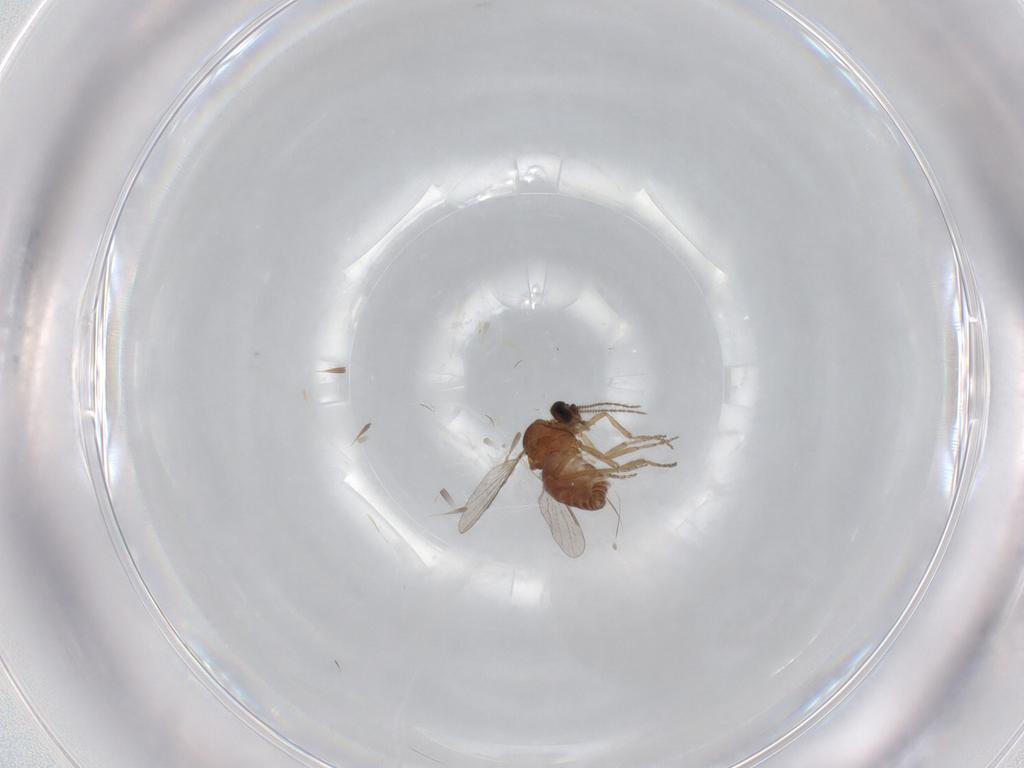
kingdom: Animalia
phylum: Arthropoda
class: Insecta
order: Diptera
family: Ceratopogonidae
